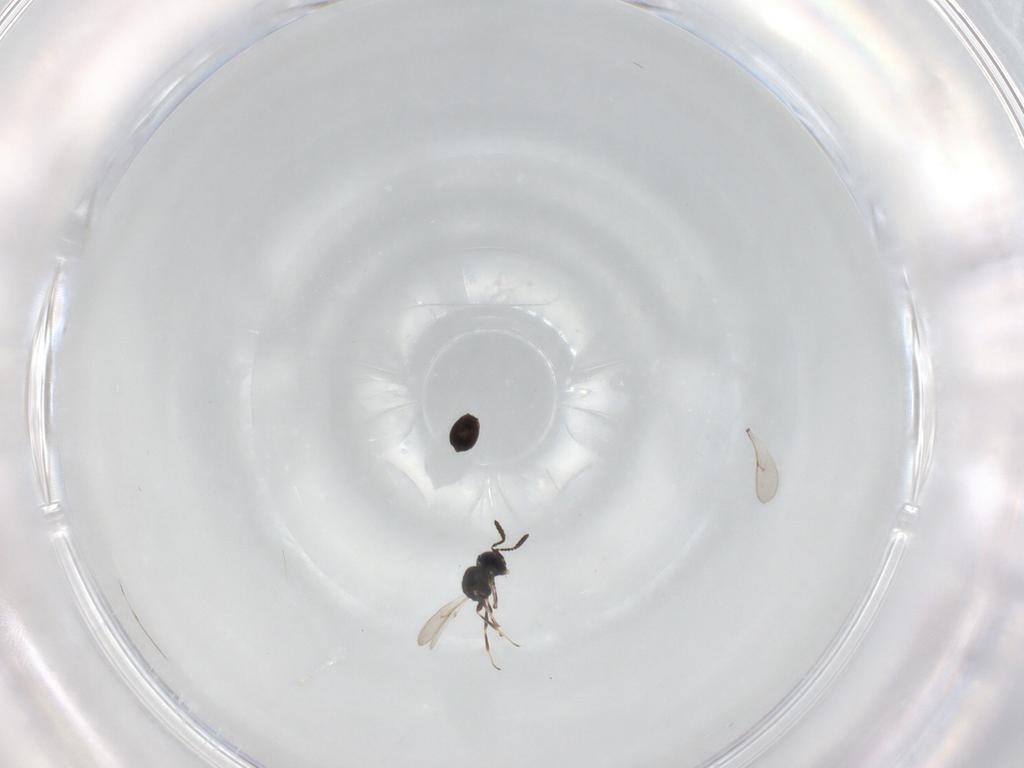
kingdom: Animalia
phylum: Arthropoda
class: Insecta
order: Hymenoptera
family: Scelionidae
